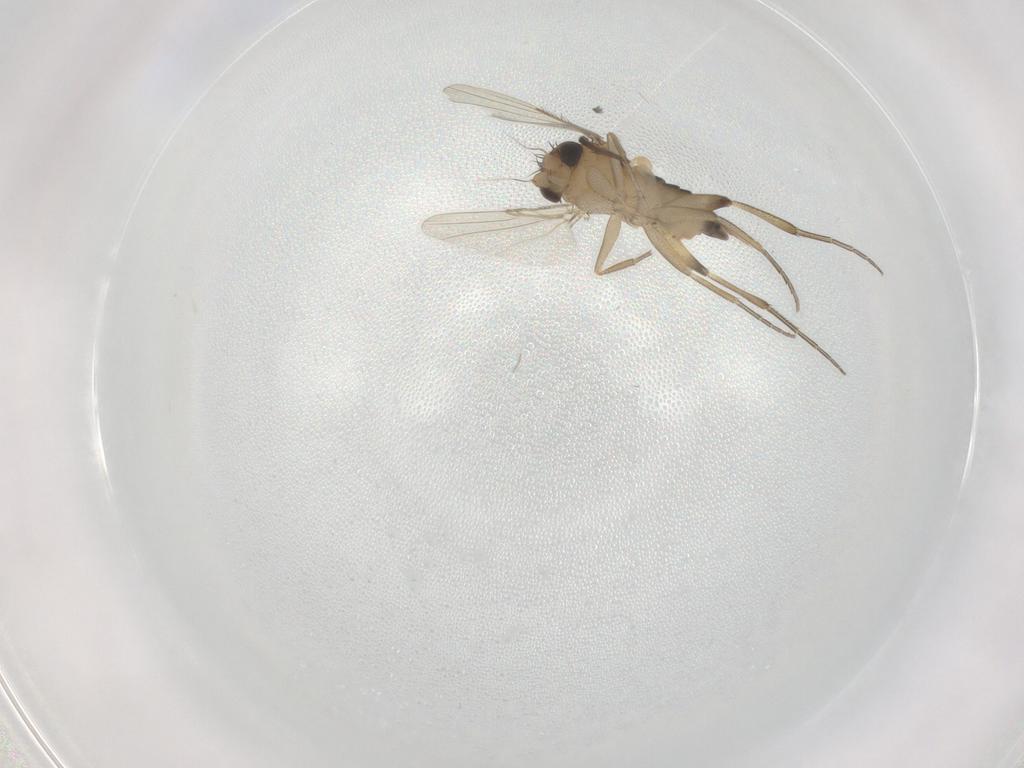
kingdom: Animalia
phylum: Arthropoda
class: Insecta
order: Diptera
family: Phoridae
